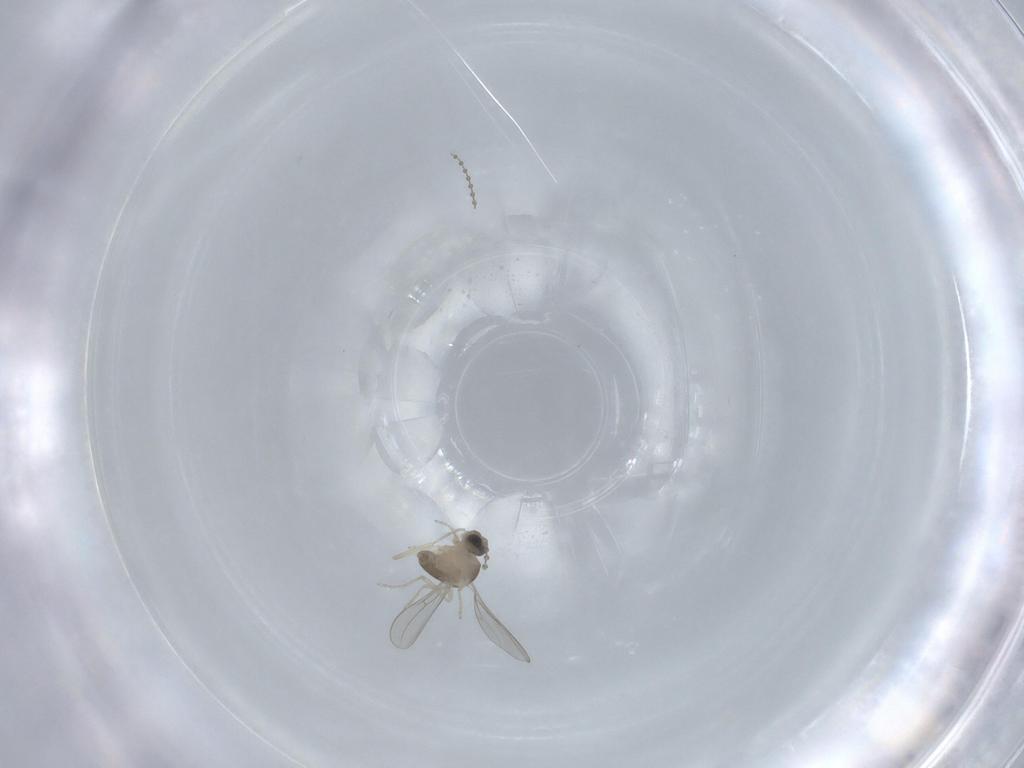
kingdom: Animalia
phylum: Arthropoda
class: Insecta
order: Diptera
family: Cecidomyiidae
